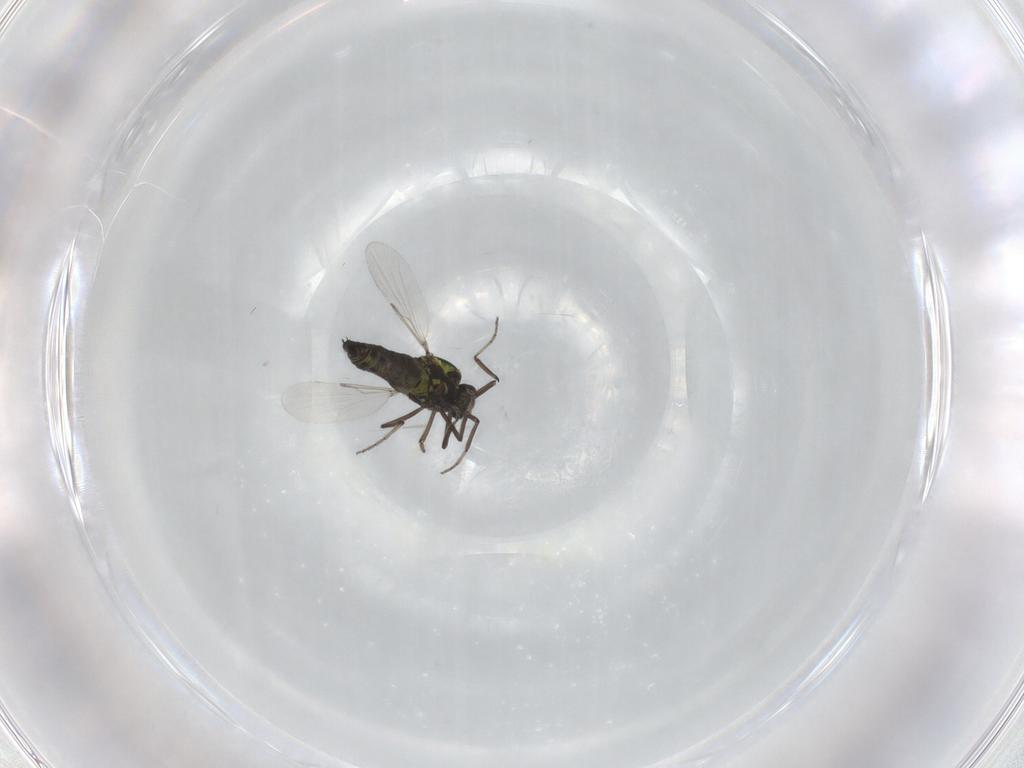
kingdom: Animalia
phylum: Arthropoda
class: Insecta
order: Diptera
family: Ceratopogonidae
